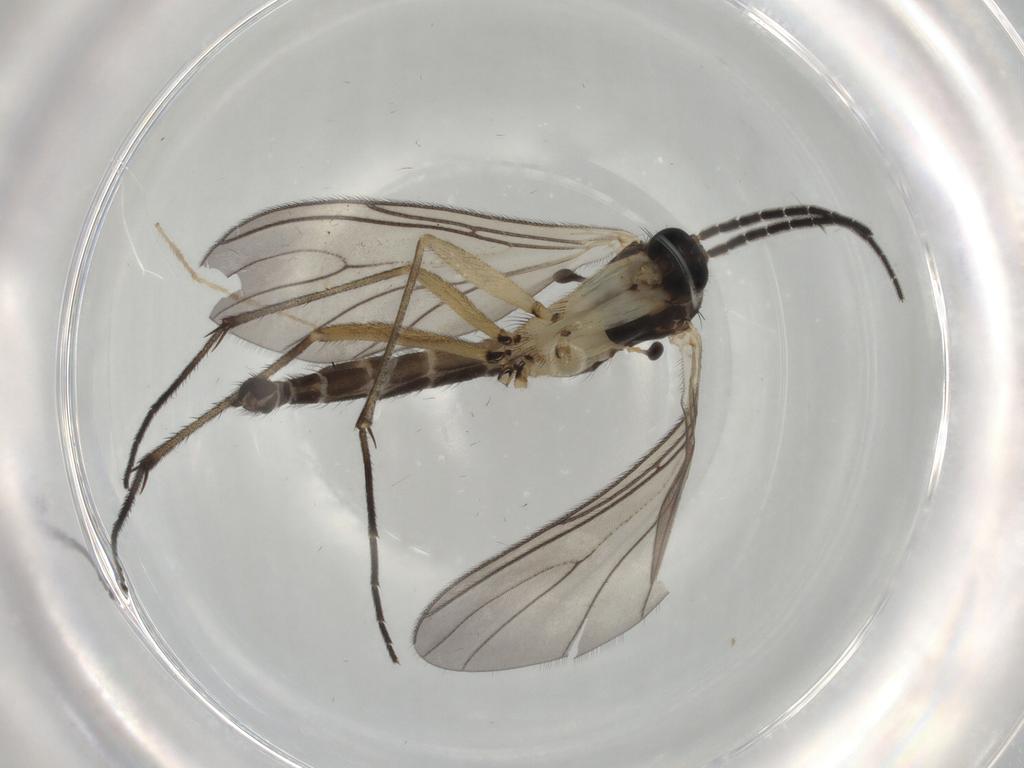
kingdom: Animalia
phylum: Arthropoda
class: Insecta
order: Diptera
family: Sciaridae
